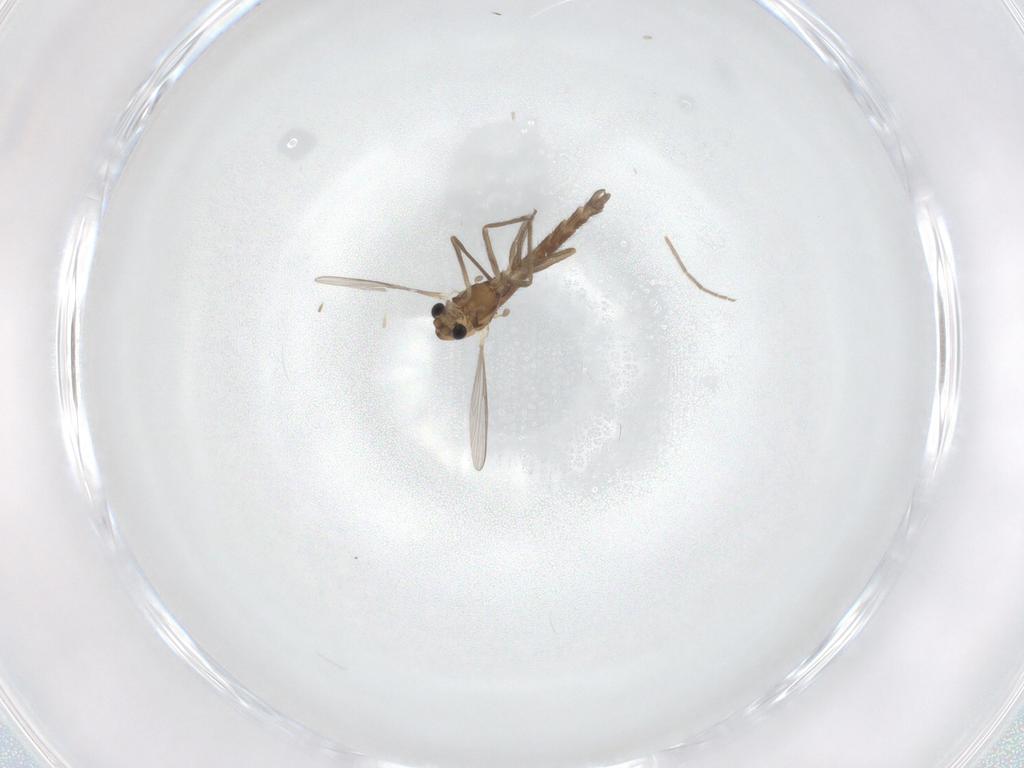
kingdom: Animalia
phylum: Arthropoda
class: Insecta
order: Diptera
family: Chironomidae
